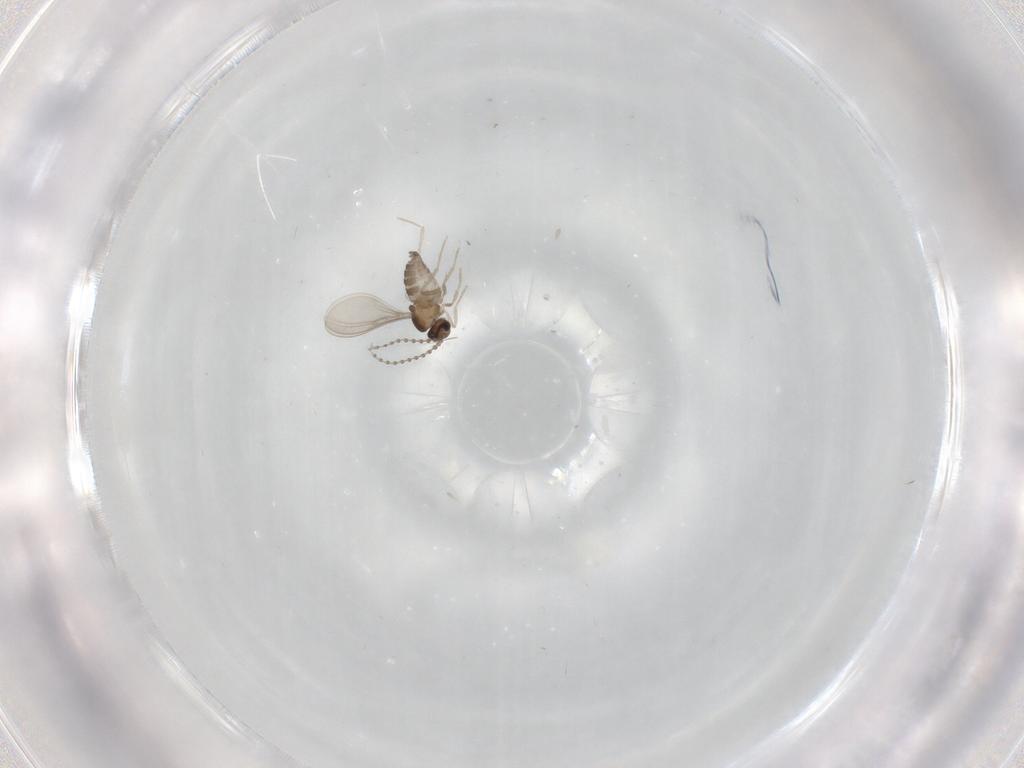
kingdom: Animalia
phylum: Arthropoda
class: Insecta
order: Diptera
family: Cecidomyiidae
